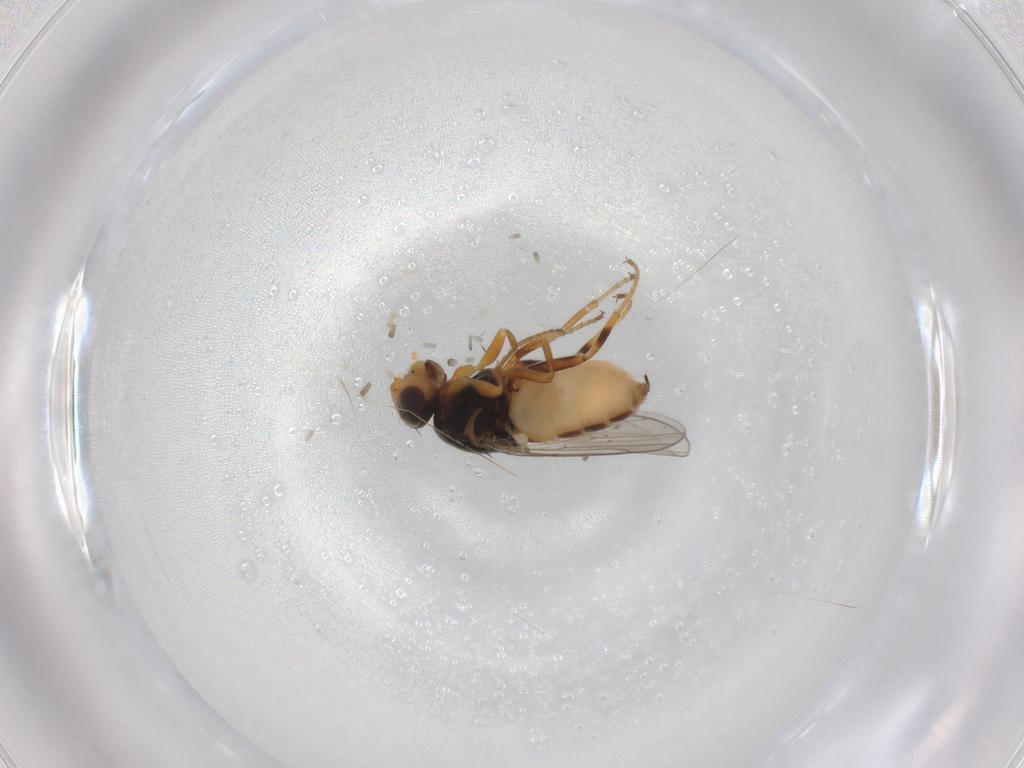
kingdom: Animalia
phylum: Arthropoda
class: Insecta
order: Diptera
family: Chloropidae
